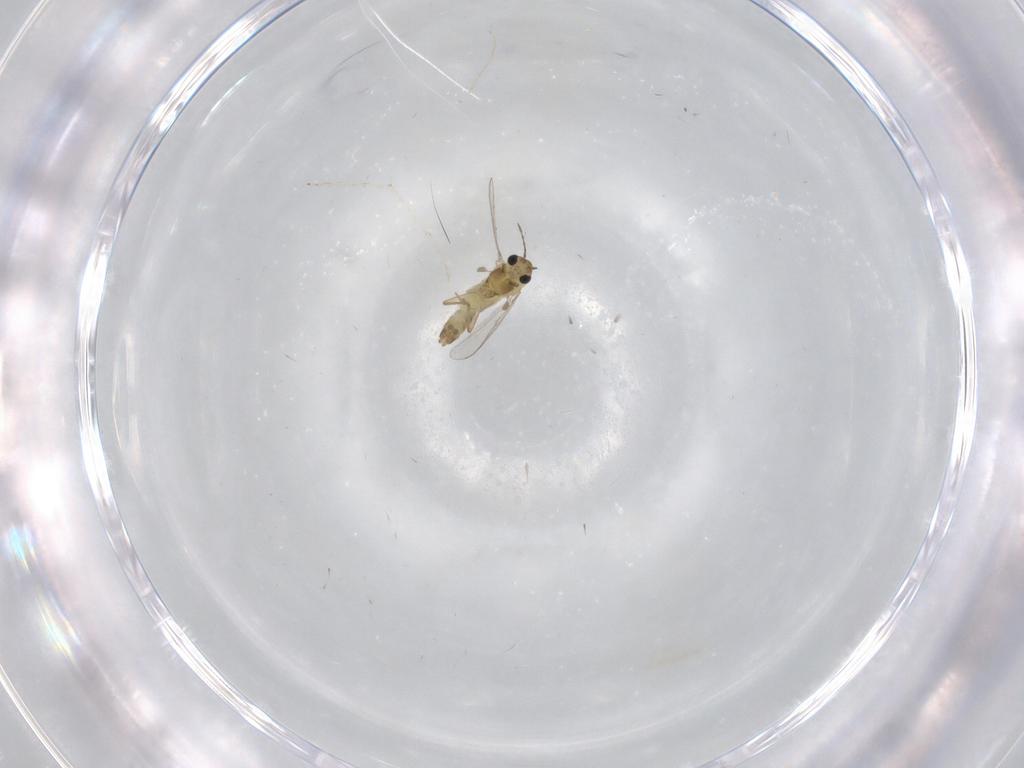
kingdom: Animalia
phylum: Arthropoda
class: Insecta
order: Diptera
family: Chironomidae
